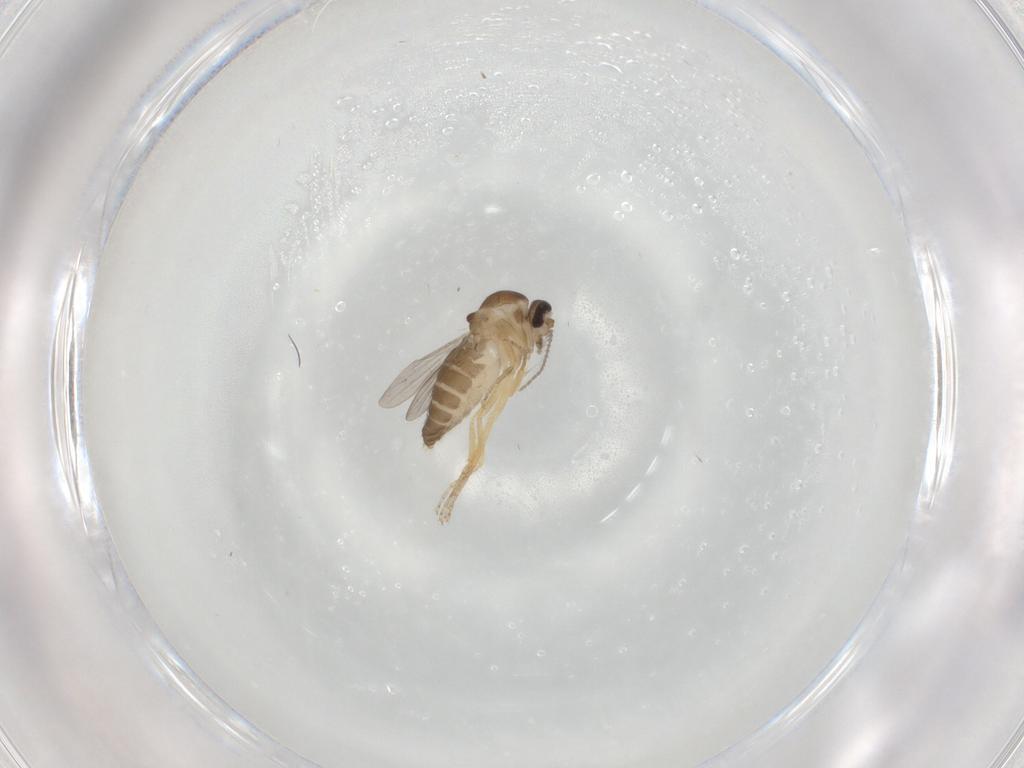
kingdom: Animalia
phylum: Arthropoda
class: Insecta
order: Diptera
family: Ceratopogonidae
